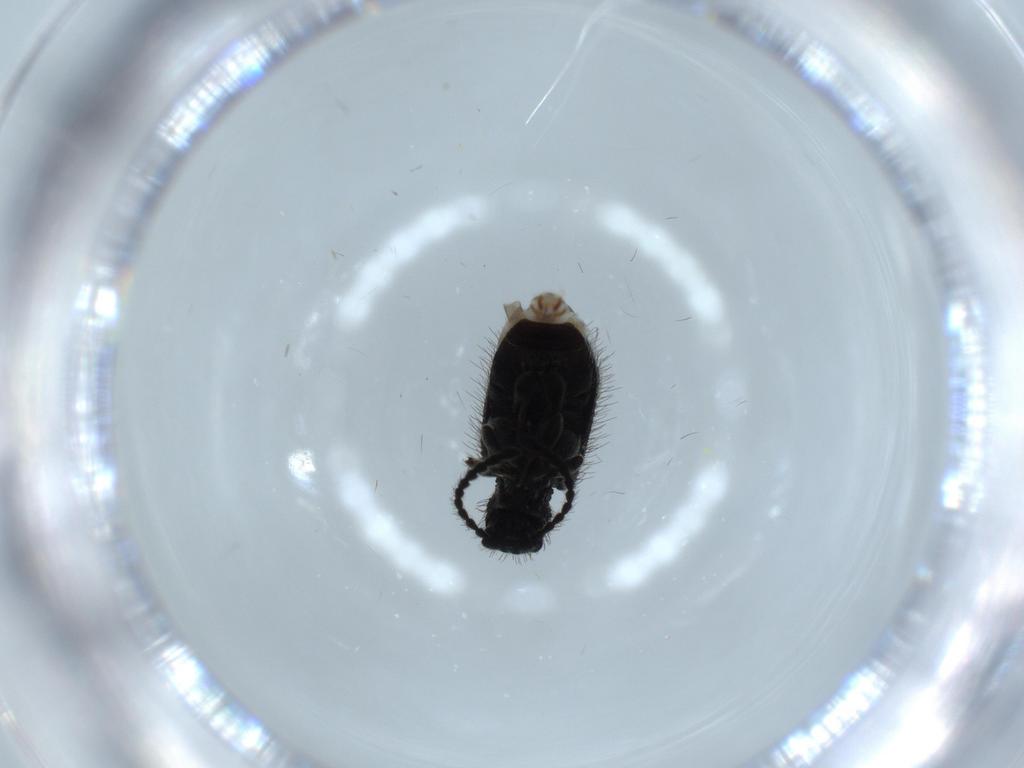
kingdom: Animalia
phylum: Arthropoda
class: Insecta
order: Coleoptera
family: Ptinidae
